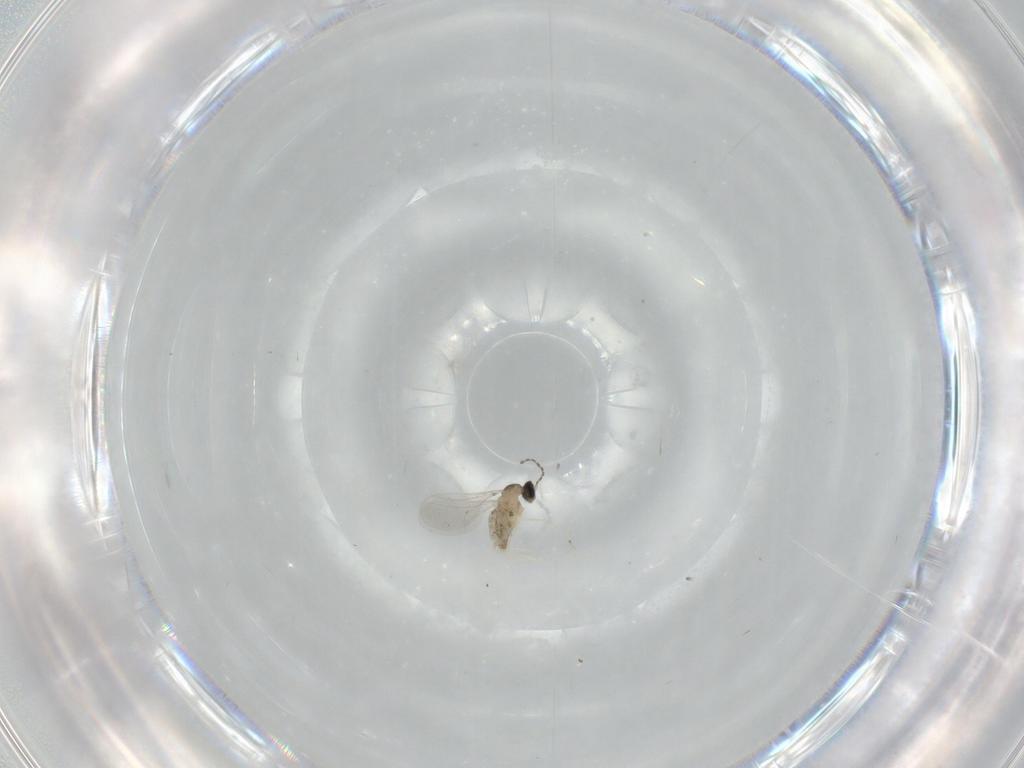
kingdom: Animalia
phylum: Arthropoda
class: Insecta
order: Diptera
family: Cecidomyiidae
